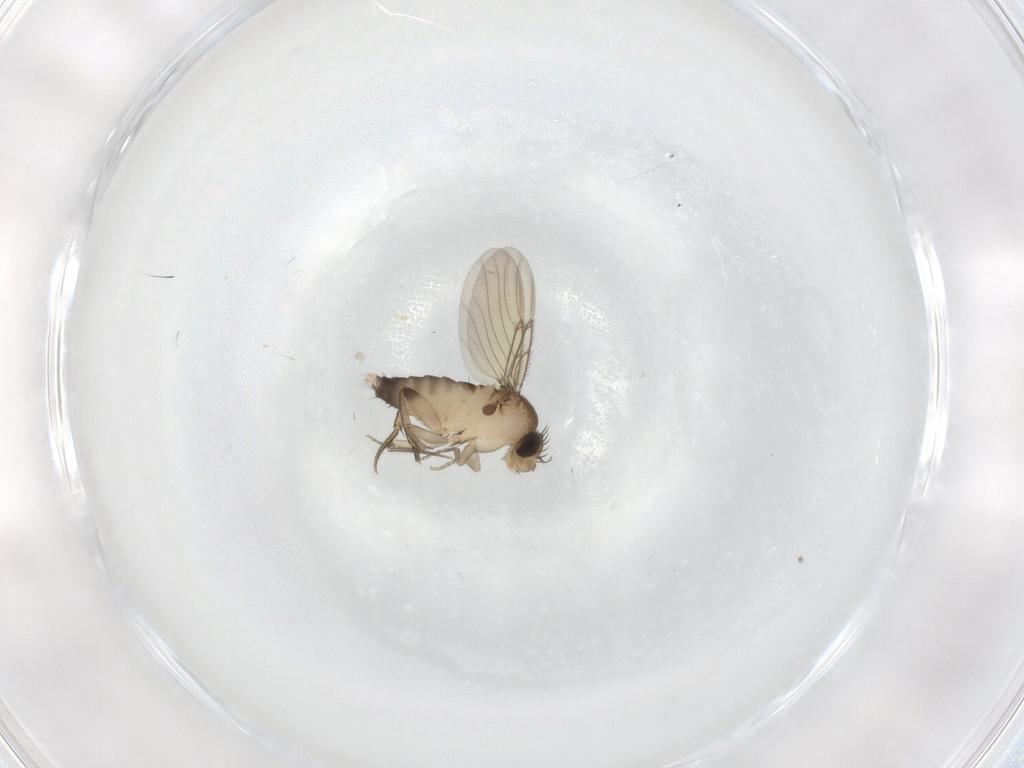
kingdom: Animalia
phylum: Arthropoda
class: Insecta
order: Diptera
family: Phoridae
